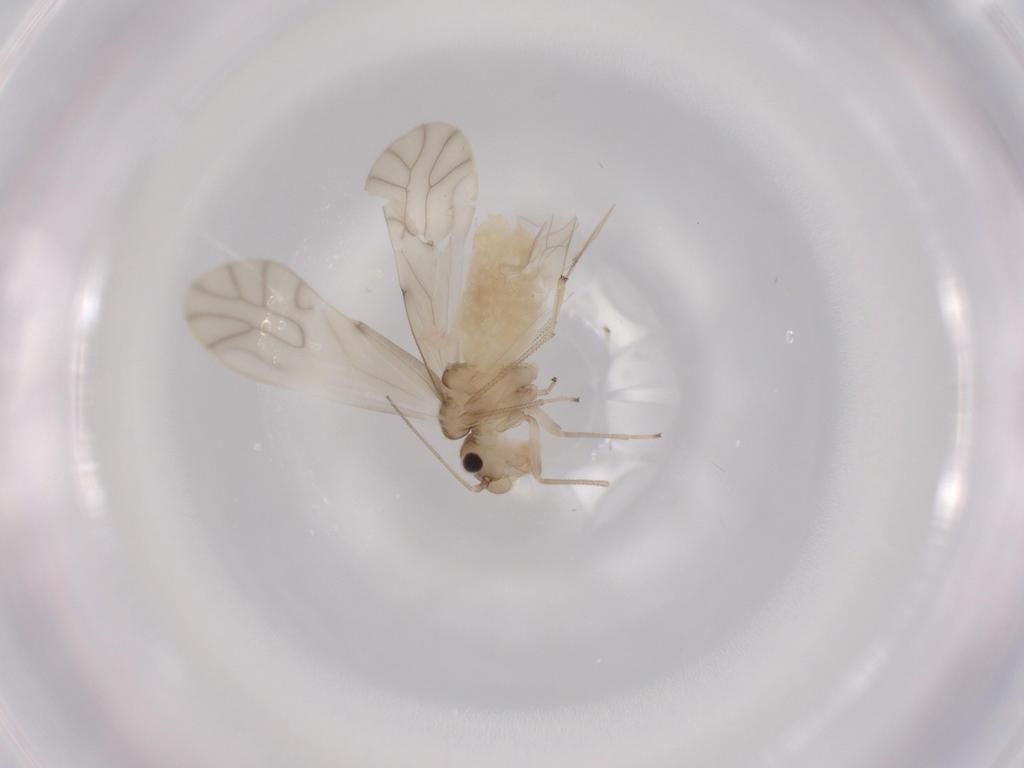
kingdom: Animalia
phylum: Arthropoda
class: Insecta
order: Psocodea
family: Caeciliusidae
